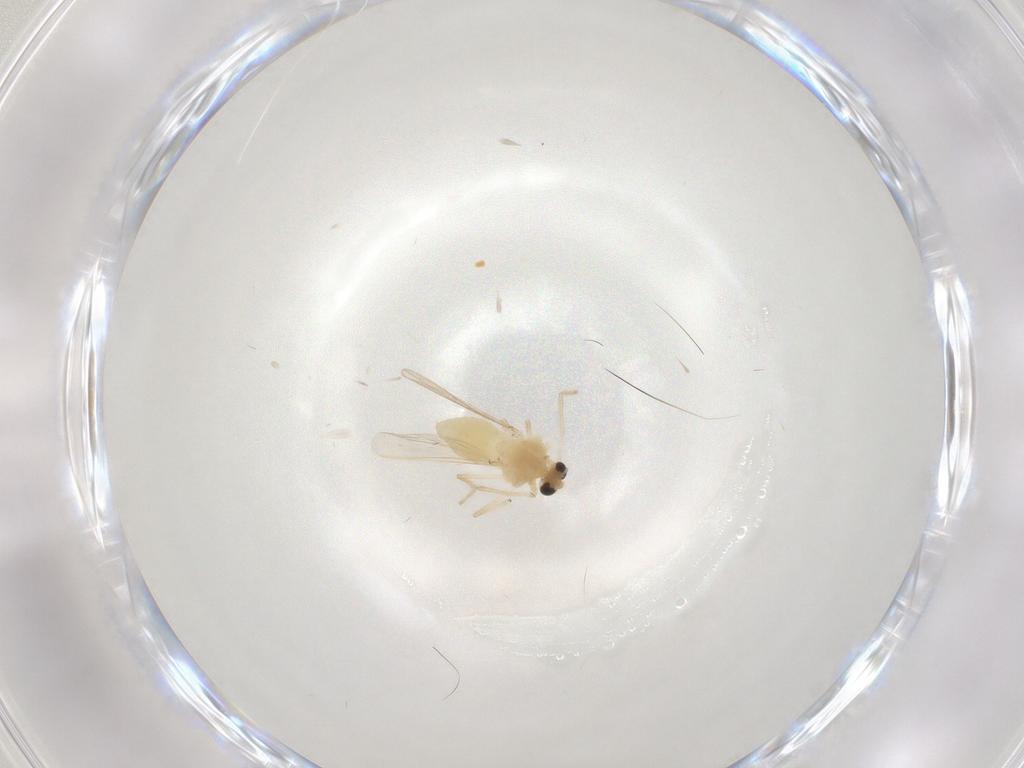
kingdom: Animalia
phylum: Arthropoda
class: Insecta
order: Diptera
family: Chironomidae
